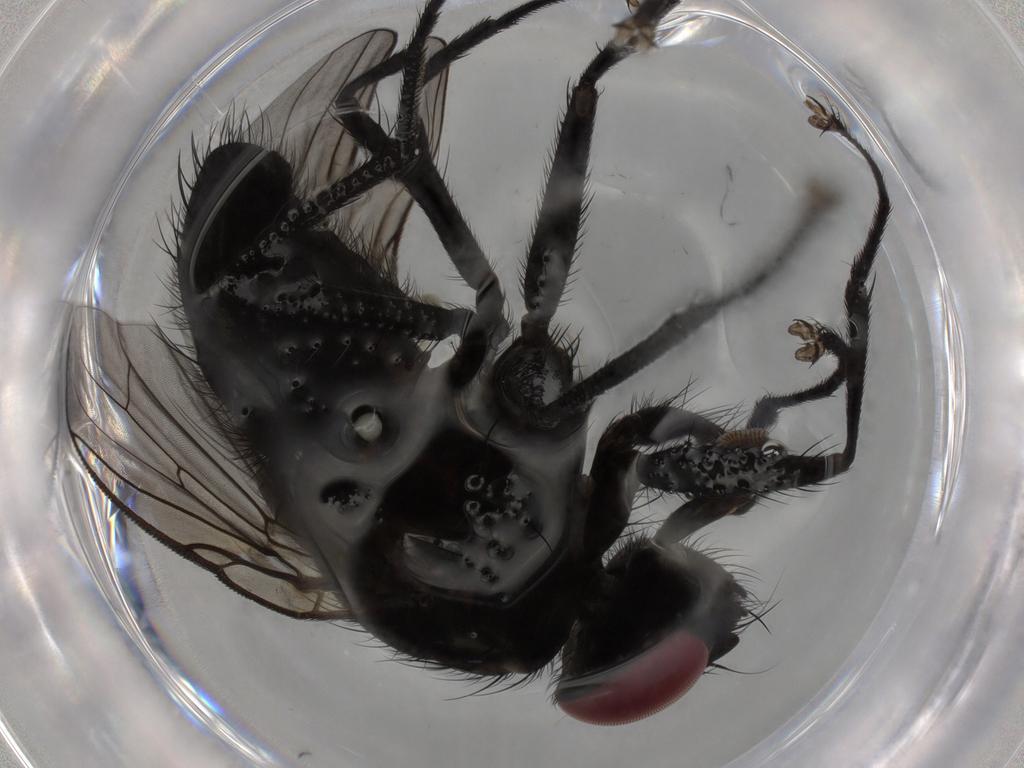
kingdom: Animalia
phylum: Arthropoda
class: Insecta
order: Diptera
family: Muscidae
